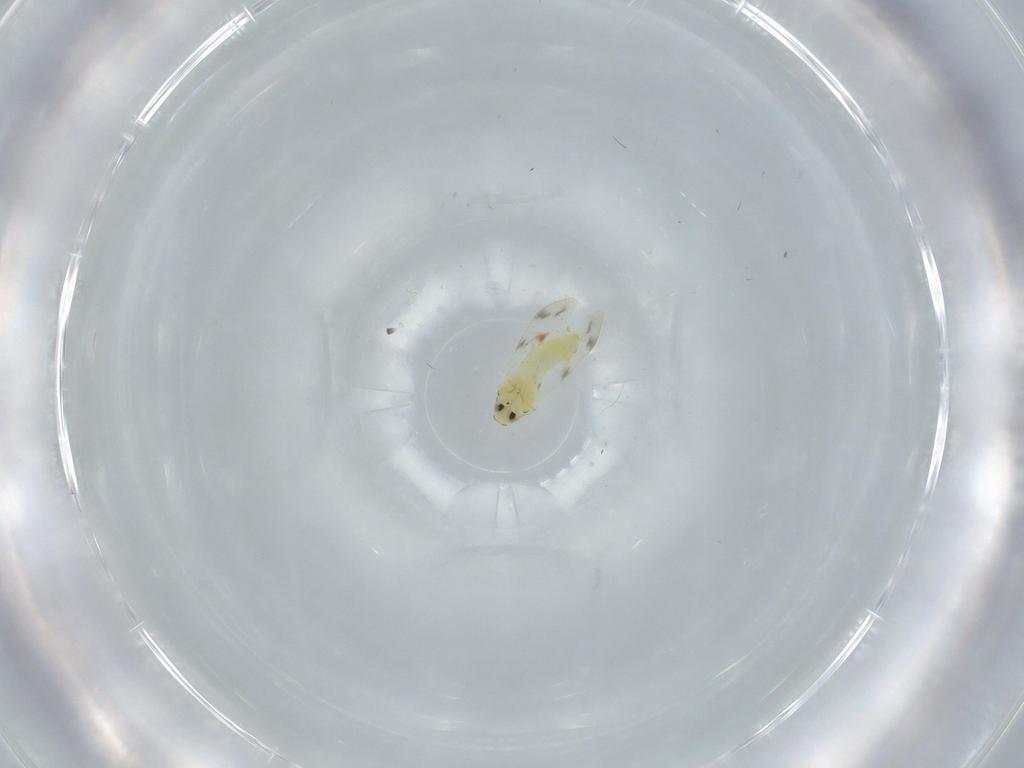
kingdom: Animalia
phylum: Arthropoda
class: Insecta
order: Hemiptera
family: Aleyrodidae
